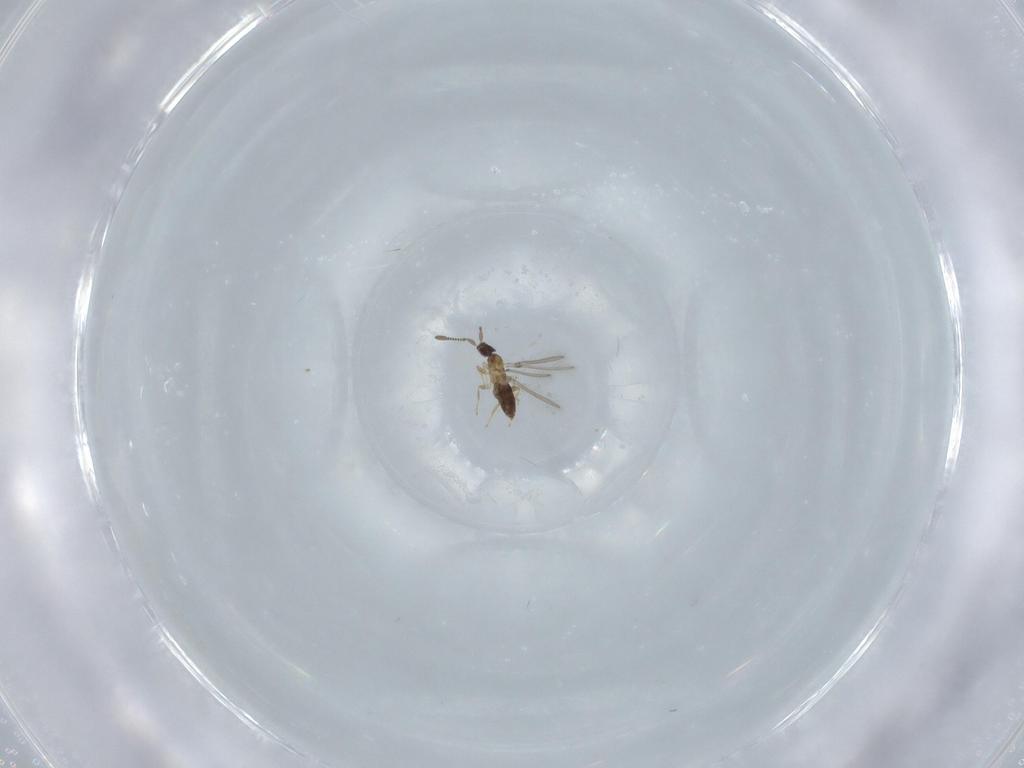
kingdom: Animalia
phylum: Arthropoda
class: Insecta
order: Hymenoptera
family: Mymaridae
